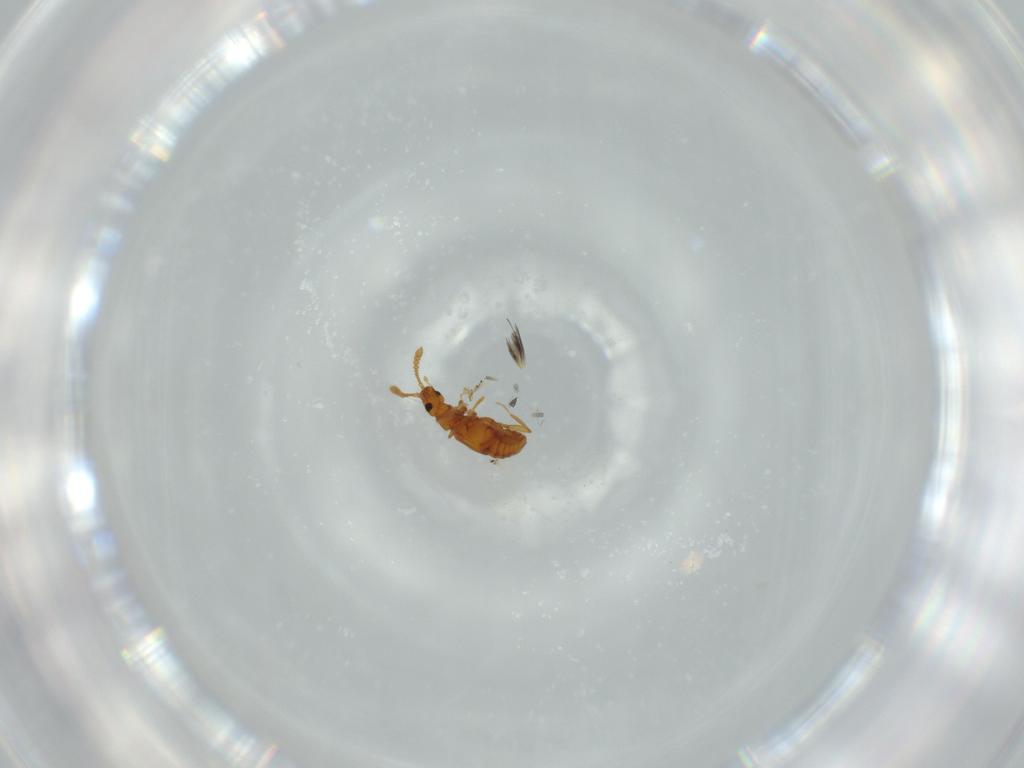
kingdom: Animalia
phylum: Arthropoda
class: Insecta
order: Coleoptera
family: Staphylinidae
